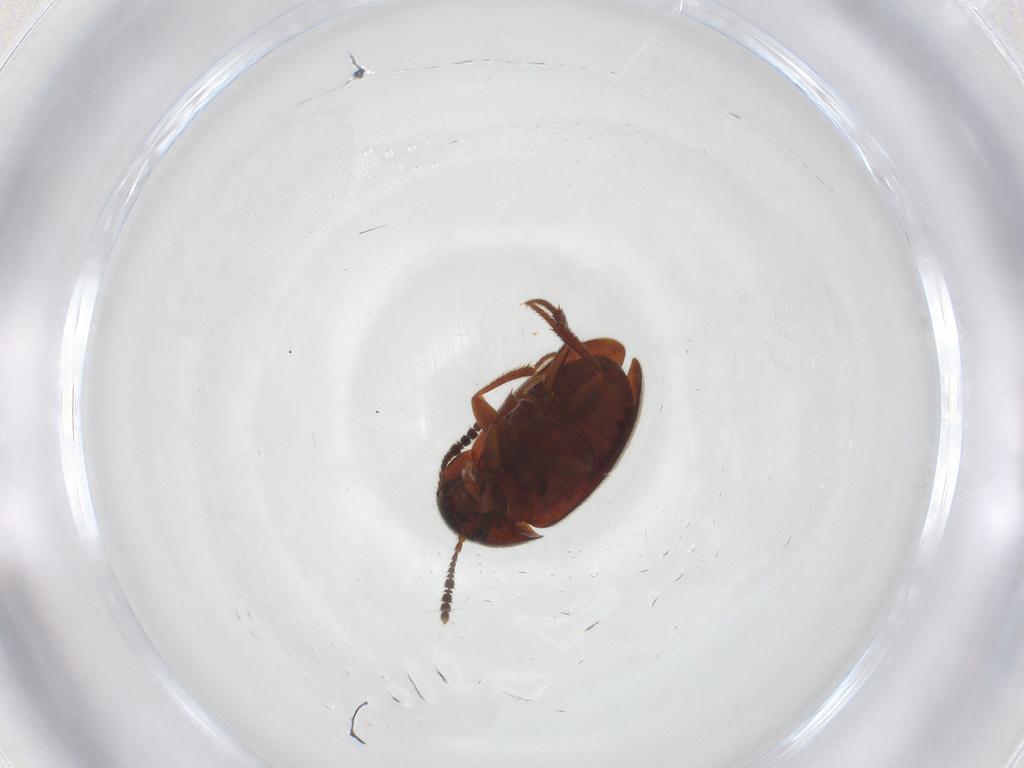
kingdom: Animalia
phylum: Arthropoda
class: Insecta
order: Coleoptera
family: Leiodidae
